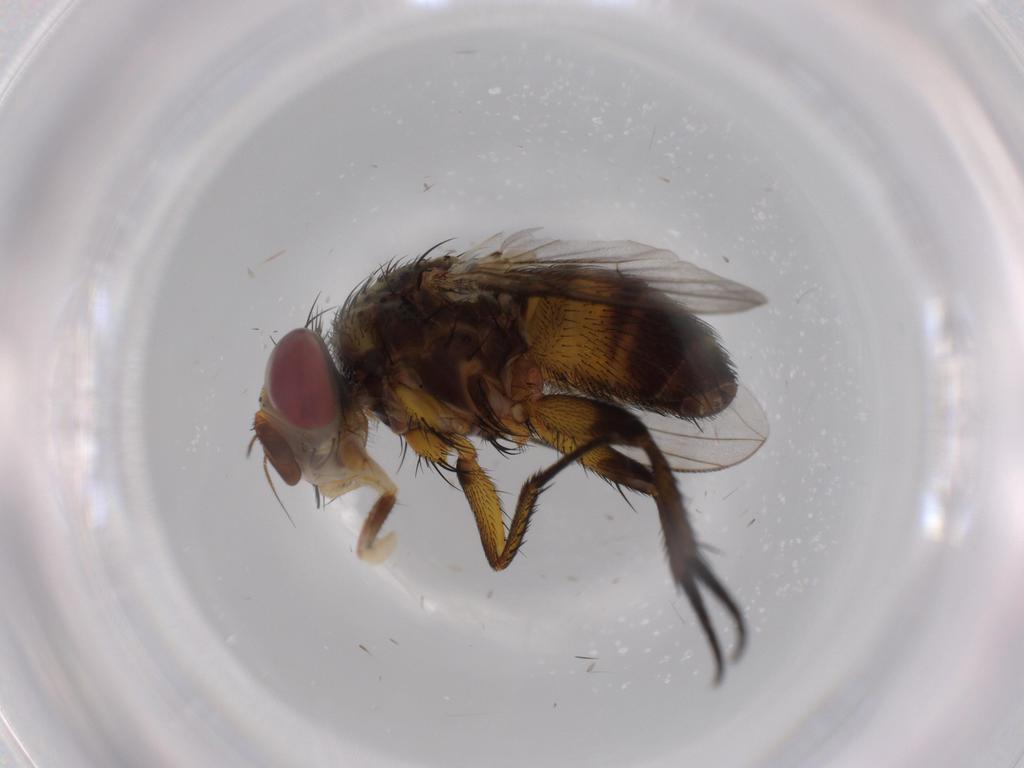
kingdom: Animalia
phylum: Arthropoda
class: Insecta
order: Diptera
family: Mycetophilidae
